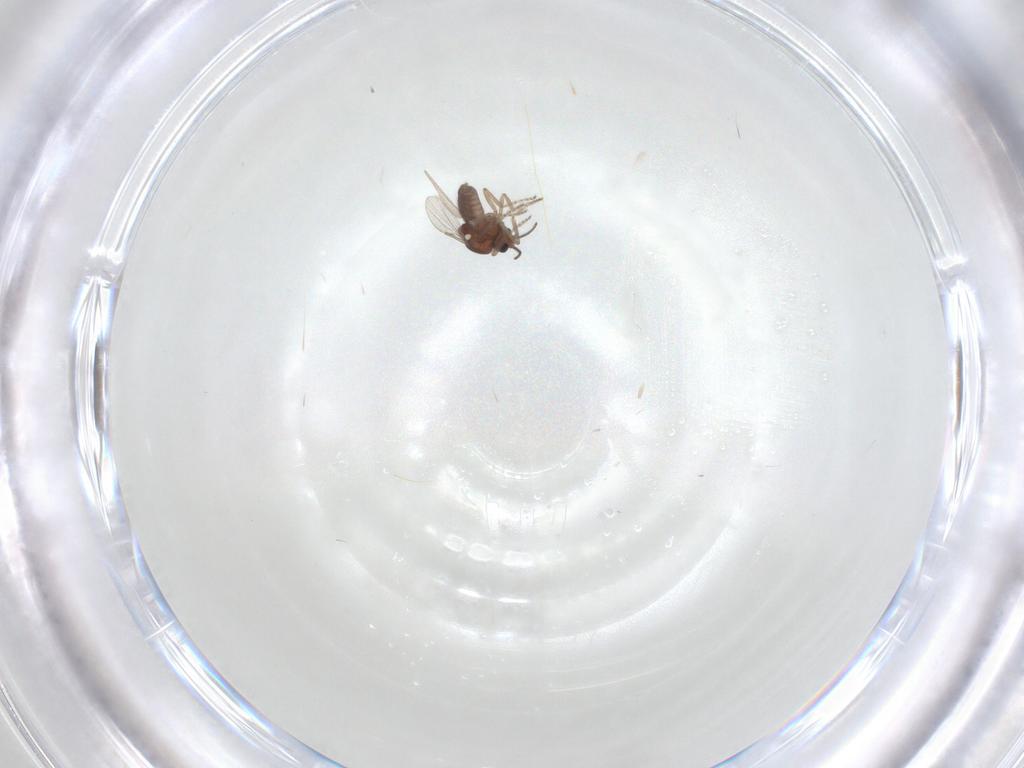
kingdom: Animalia
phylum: Arthropoda
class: Insecta
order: Diptera
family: Ceratopogonidae
